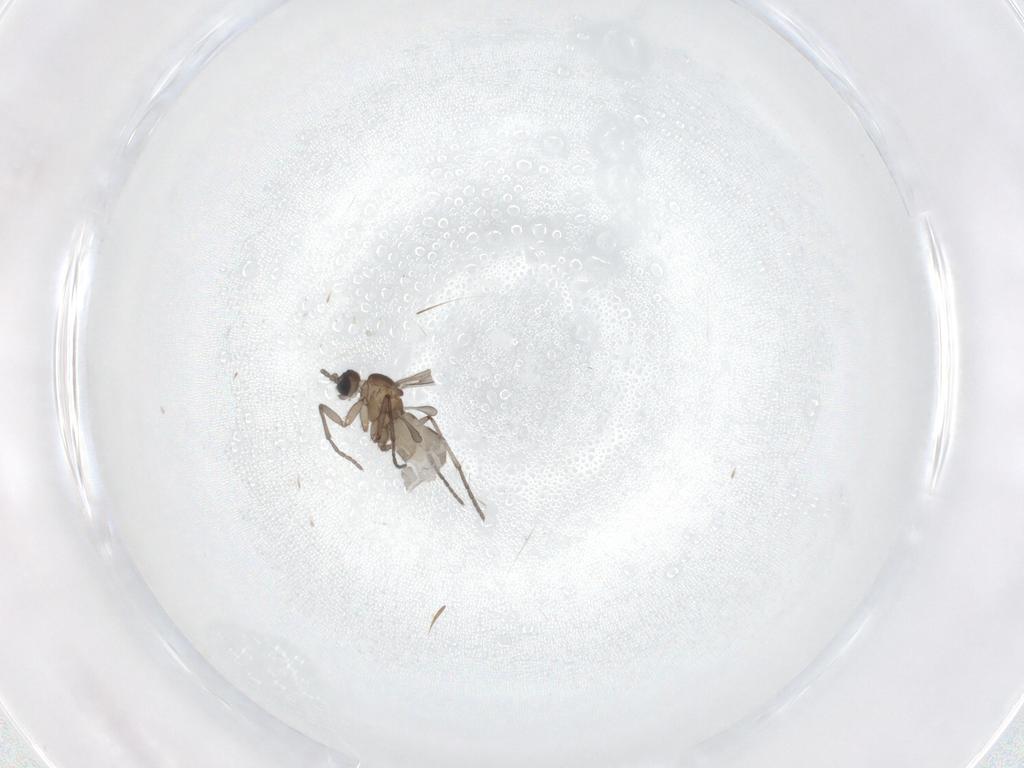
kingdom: Animalia
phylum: Arthropoda
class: Insecta
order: Diptera
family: Sciaridae
